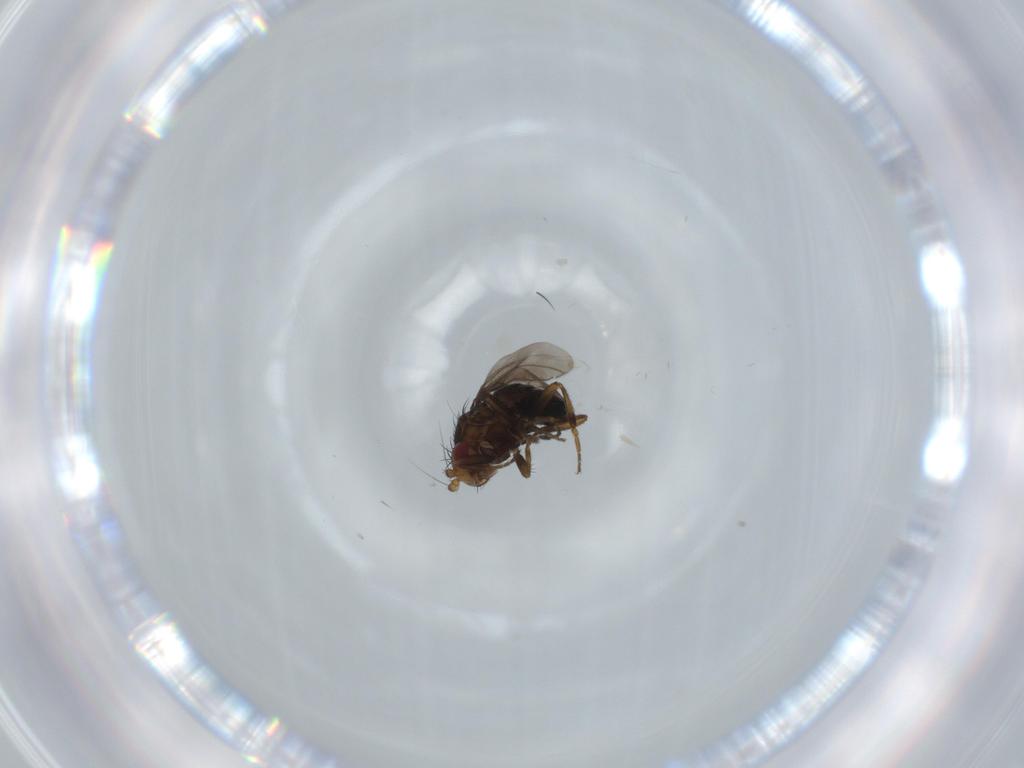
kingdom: Animalia
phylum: Arthropoda
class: Insecta
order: Diptera
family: Sphaeroceridae
